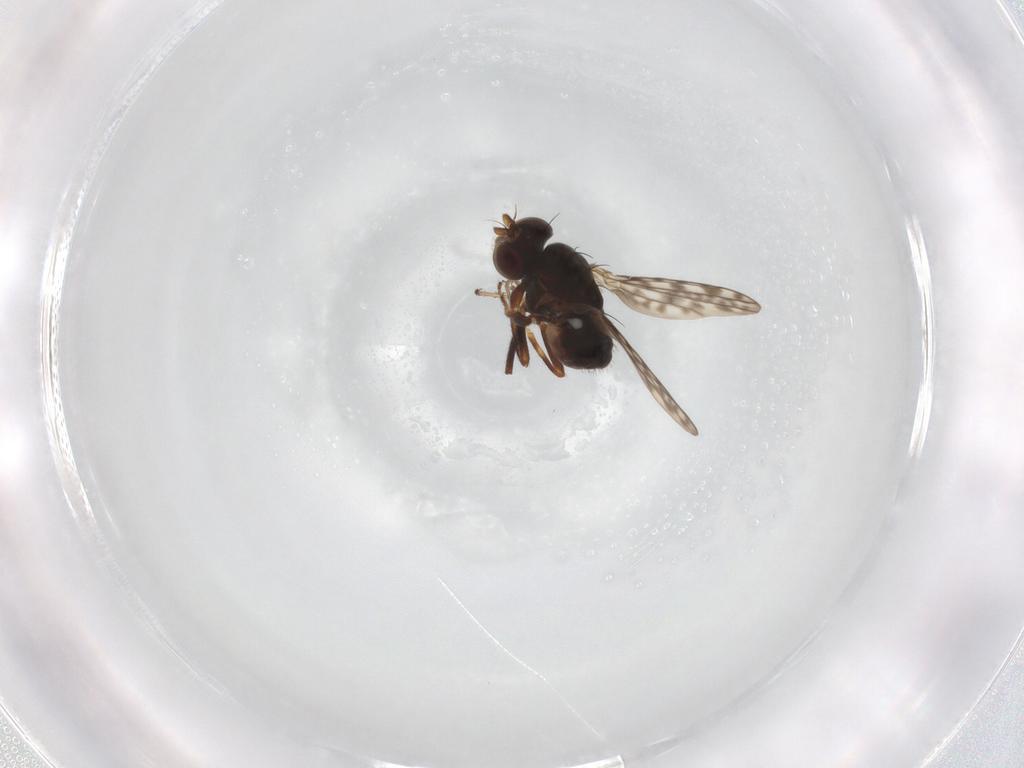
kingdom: Animalia
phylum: Arthropoda
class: Insecta
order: Diptera
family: Ephydridae
